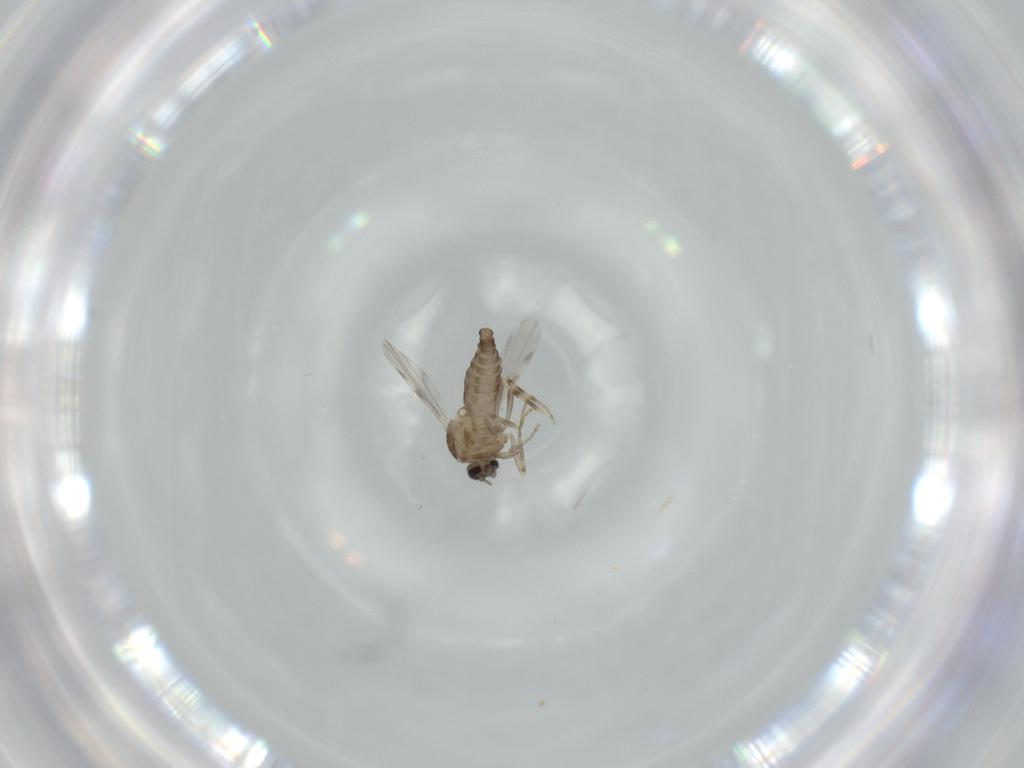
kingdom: Animalia
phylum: Arthropoda
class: Insecta
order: Diptera
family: Ceratopogonidae
